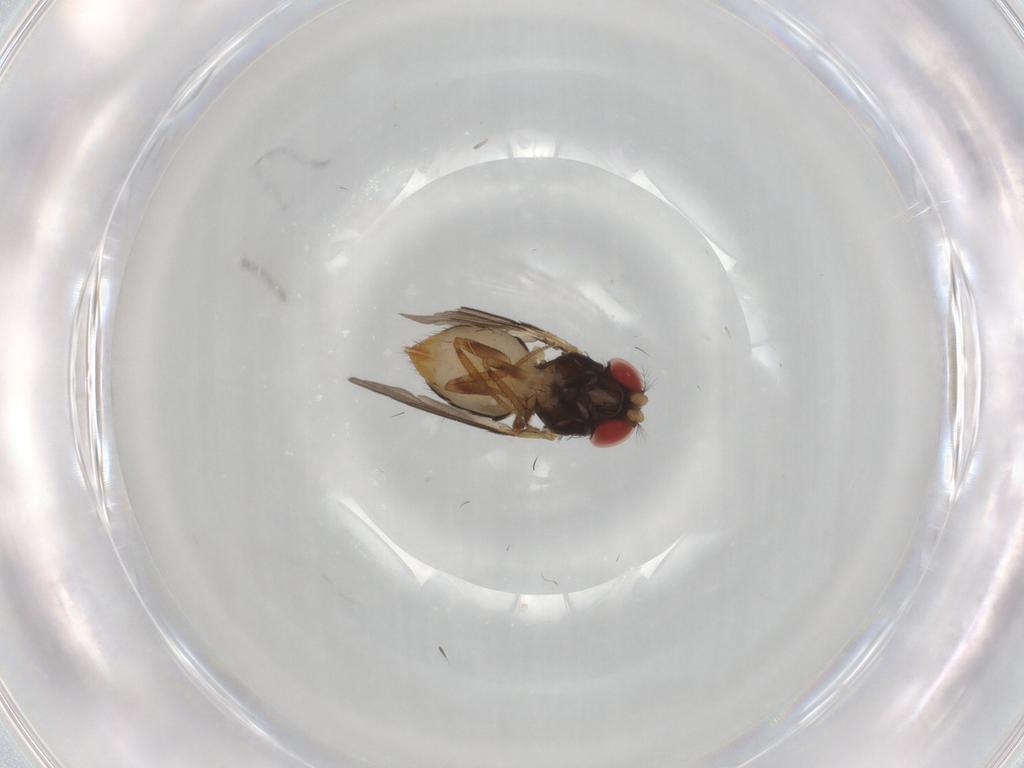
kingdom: Animalia
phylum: Arthropoda
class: Insecta
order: Diptera
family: Drosophilidae
